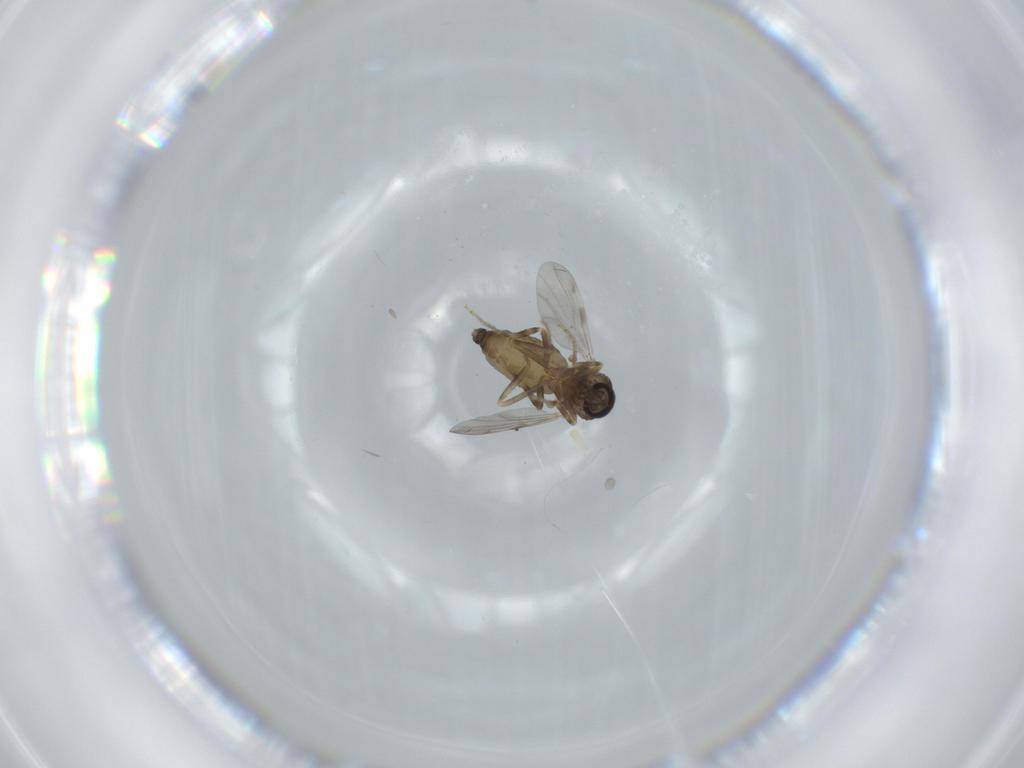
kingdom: Animalia
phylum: Arthropoda
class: Insecta
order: Diptera
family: Ceratopogonidae
